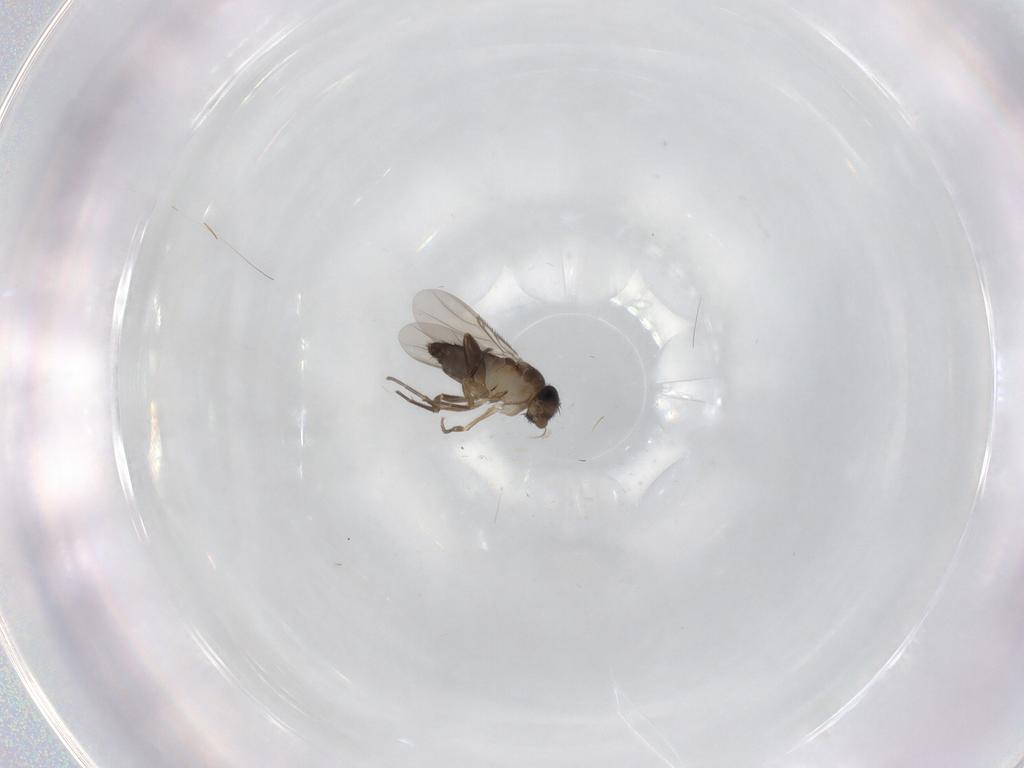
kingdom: Animalia
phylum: Arthropoda
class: Insecta
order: Diptera
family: Phoridae
